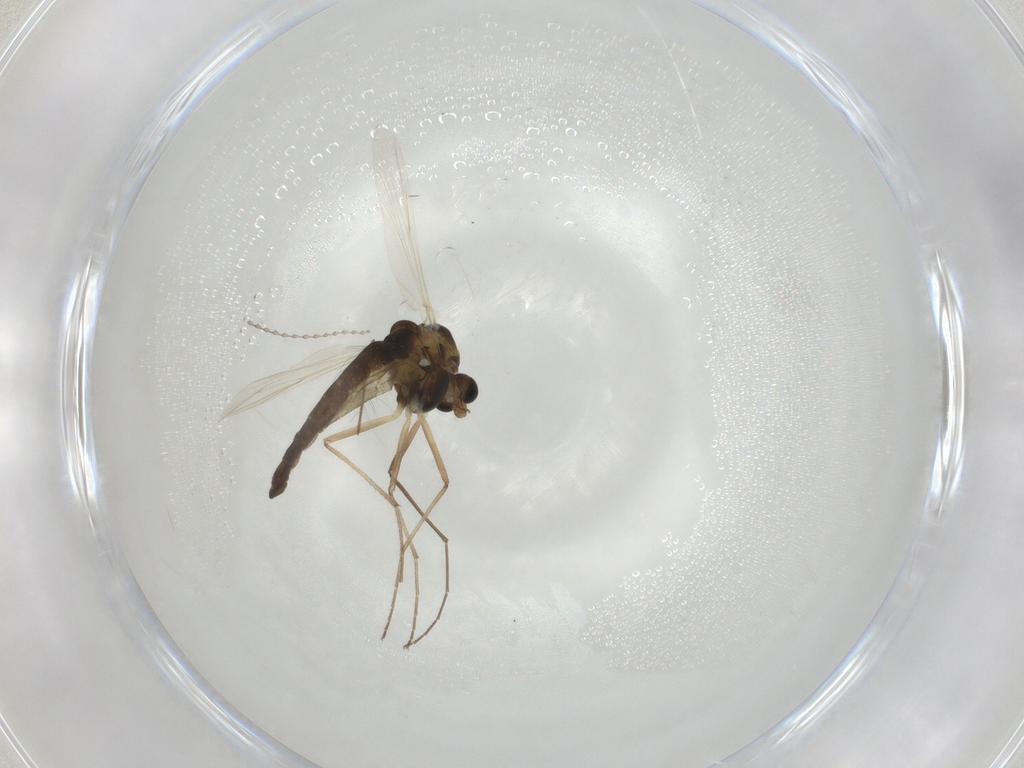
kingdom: Animalia
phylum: Arthropoda
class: Insecta
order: Diptera
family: Chironomidae
